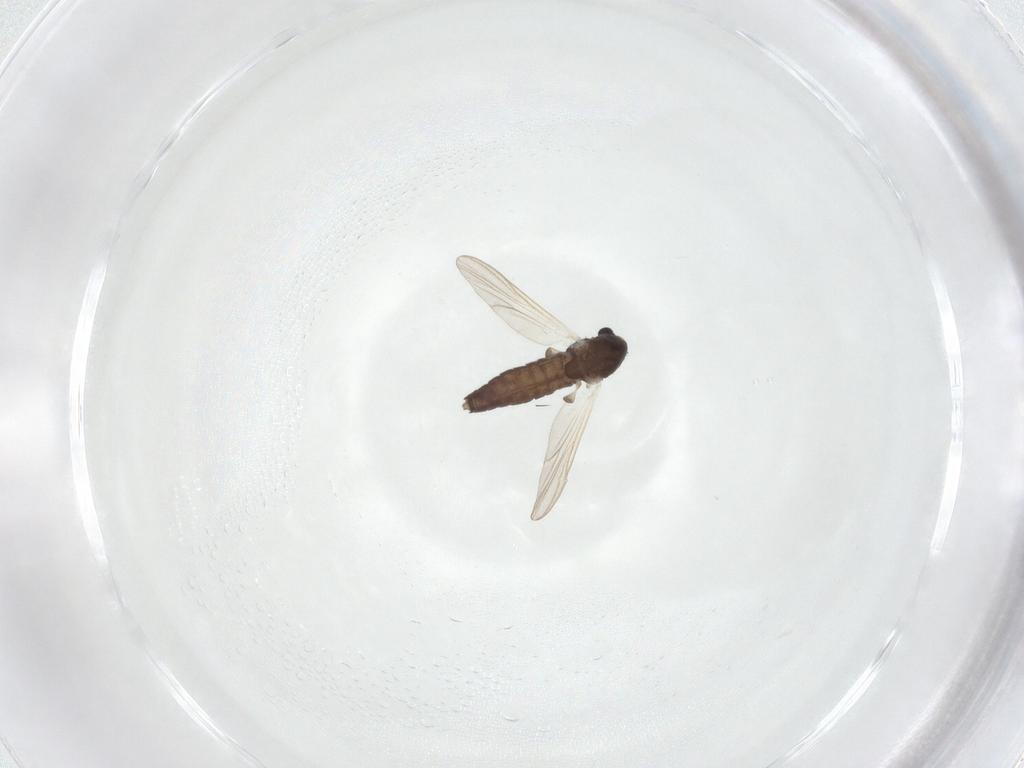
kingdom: Animalia
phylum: Arthropoda
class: Insecta
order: Diptera
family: Chironomidae
